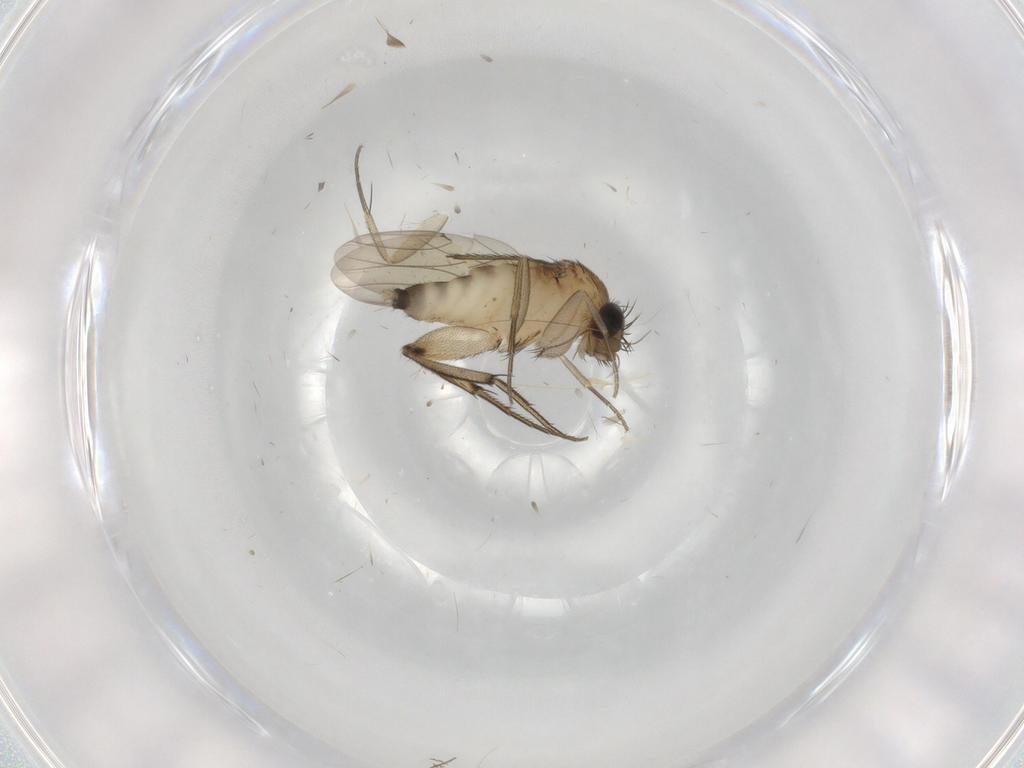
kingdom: Animalia
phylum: Arthropoda
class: Insecta
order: Diptera
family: Phoridae
